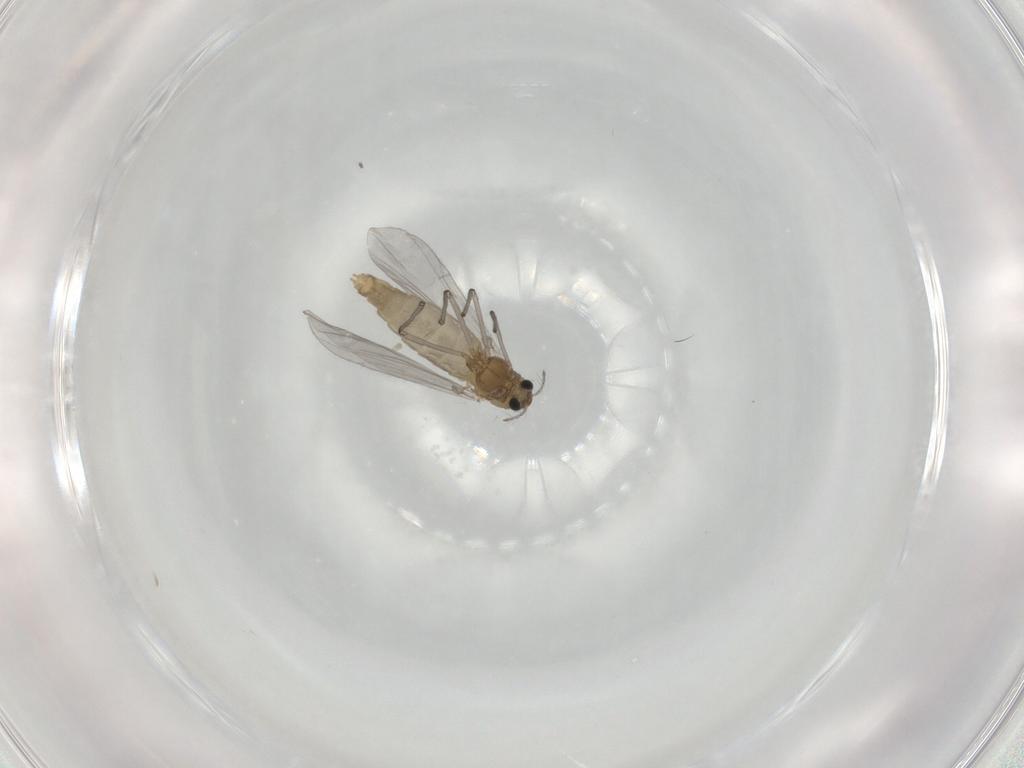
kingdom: Animalia
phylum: Arthropoda
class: Insecta
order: Diptera
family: Chironomidae
